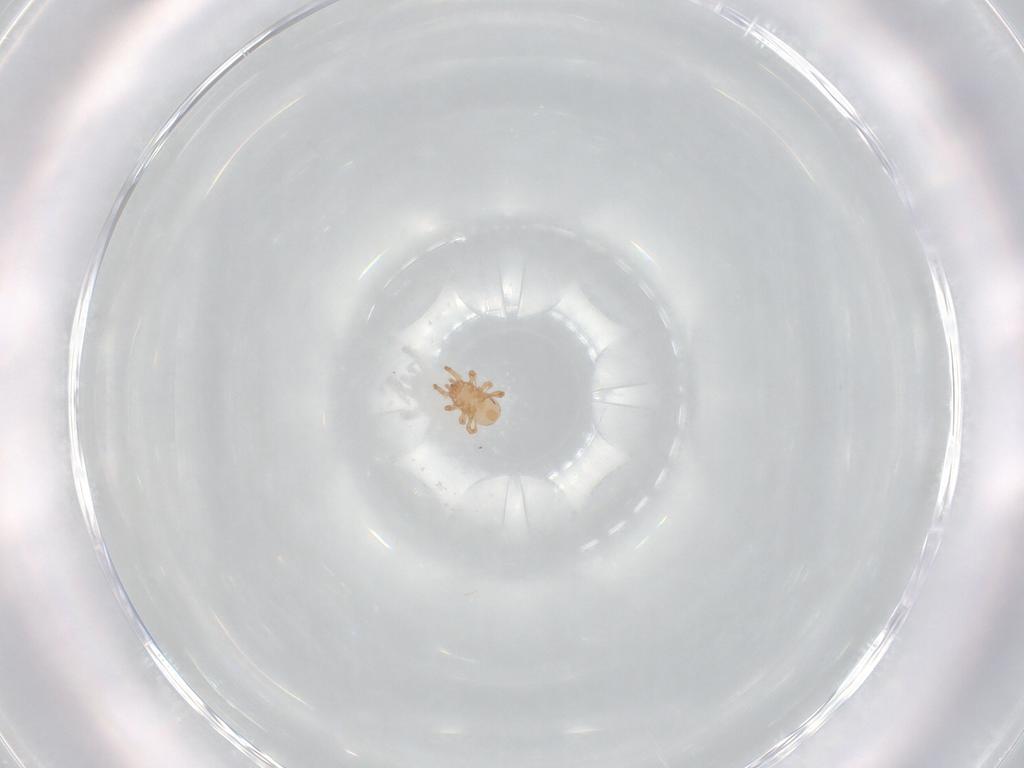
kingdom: Animalia
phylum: Arthropoda
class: Arachnida
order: Mesostigmata
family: Ascidae
